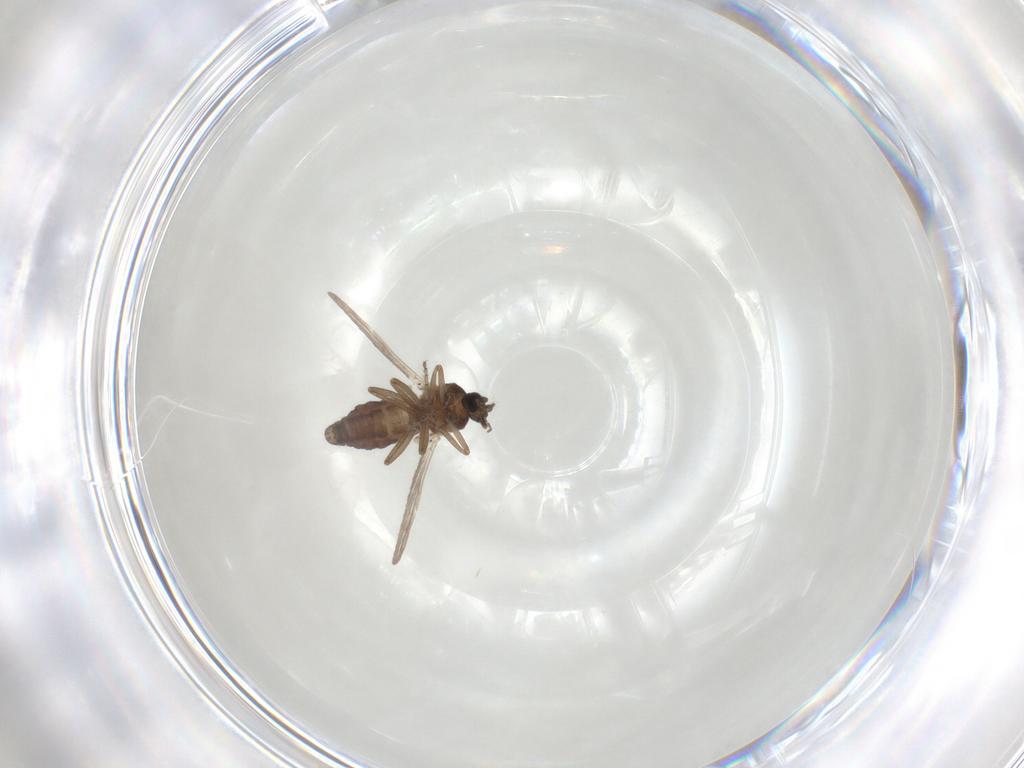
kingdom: Animalia
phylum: Arthropoda
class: Insecta
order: Diptera
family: Ceratopogonidae
